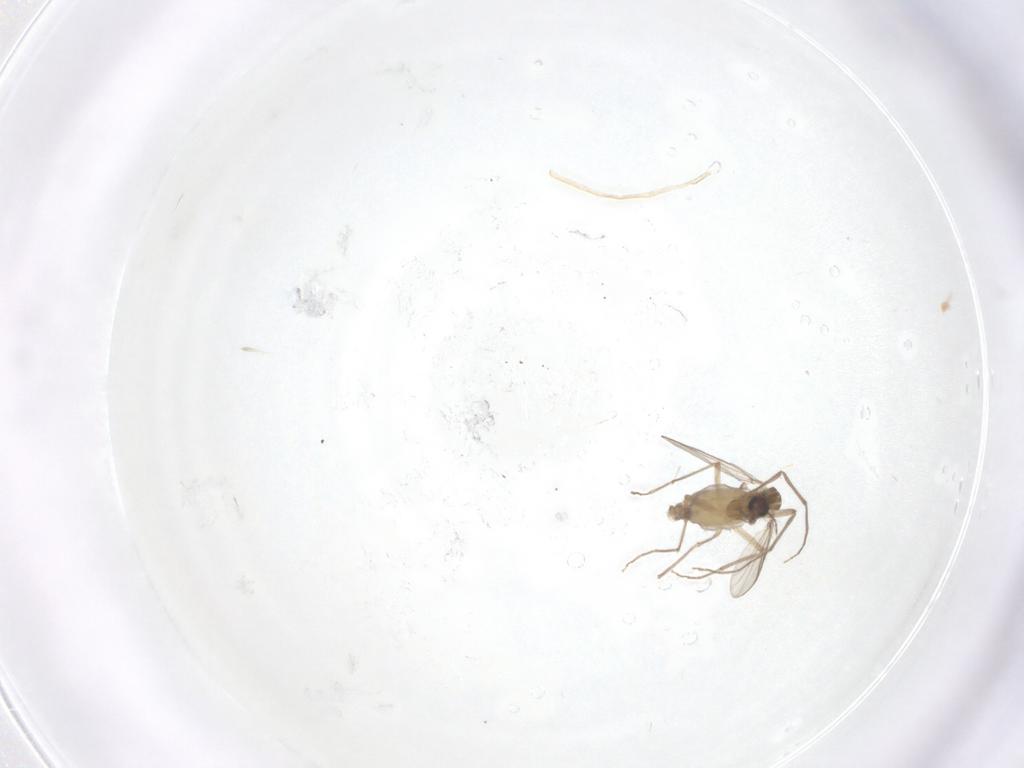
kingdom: Animalia
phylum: Arthropoda
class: Insecta
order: Diptera
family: Chironomidae
